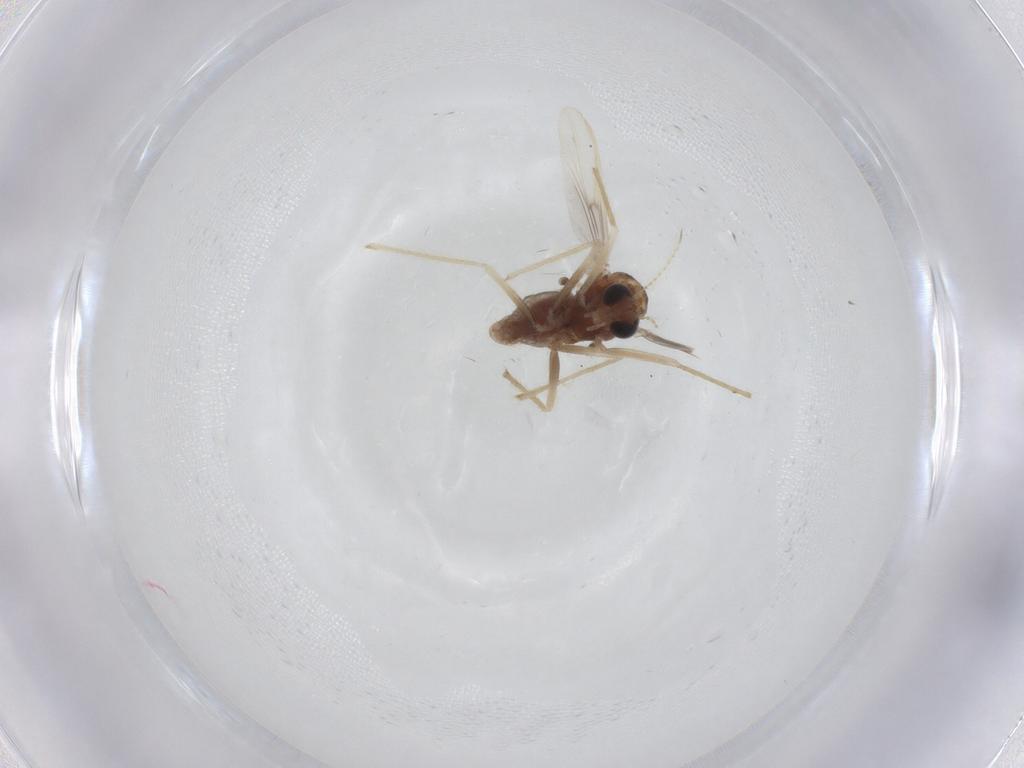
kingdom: Animalia
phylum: Arthropoda
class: Insecta
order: Diptera
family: Chironomidae
